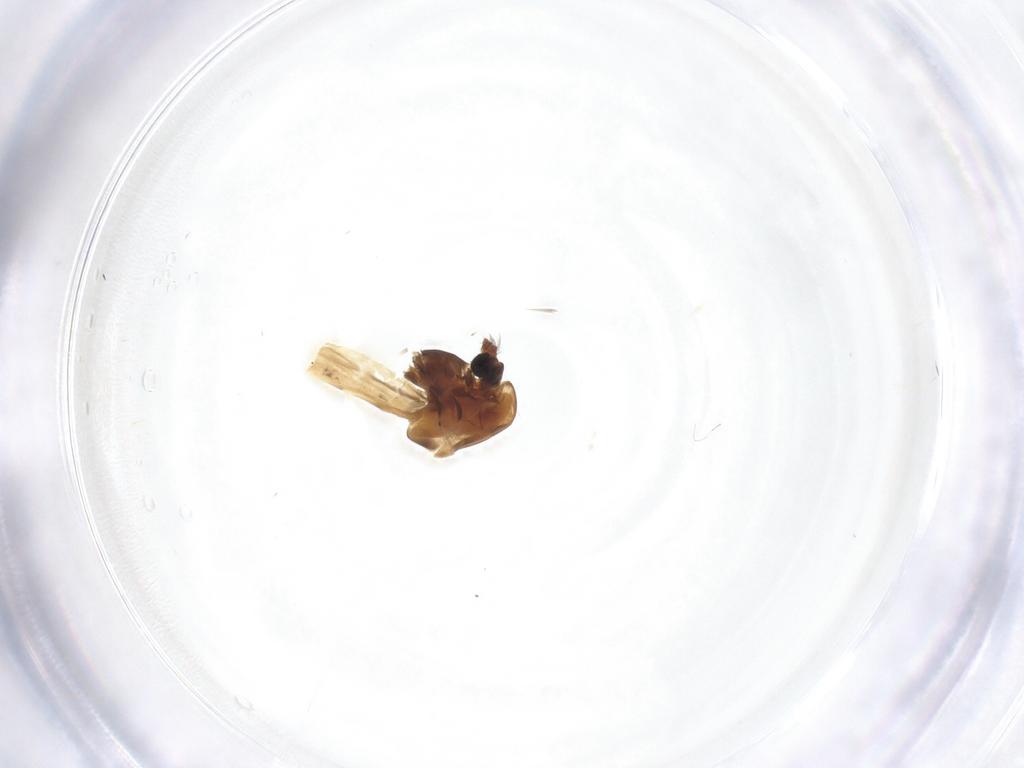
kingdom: Animalia
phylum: Arthropoda
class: Insecta
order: Diptera
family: Chironomidae
